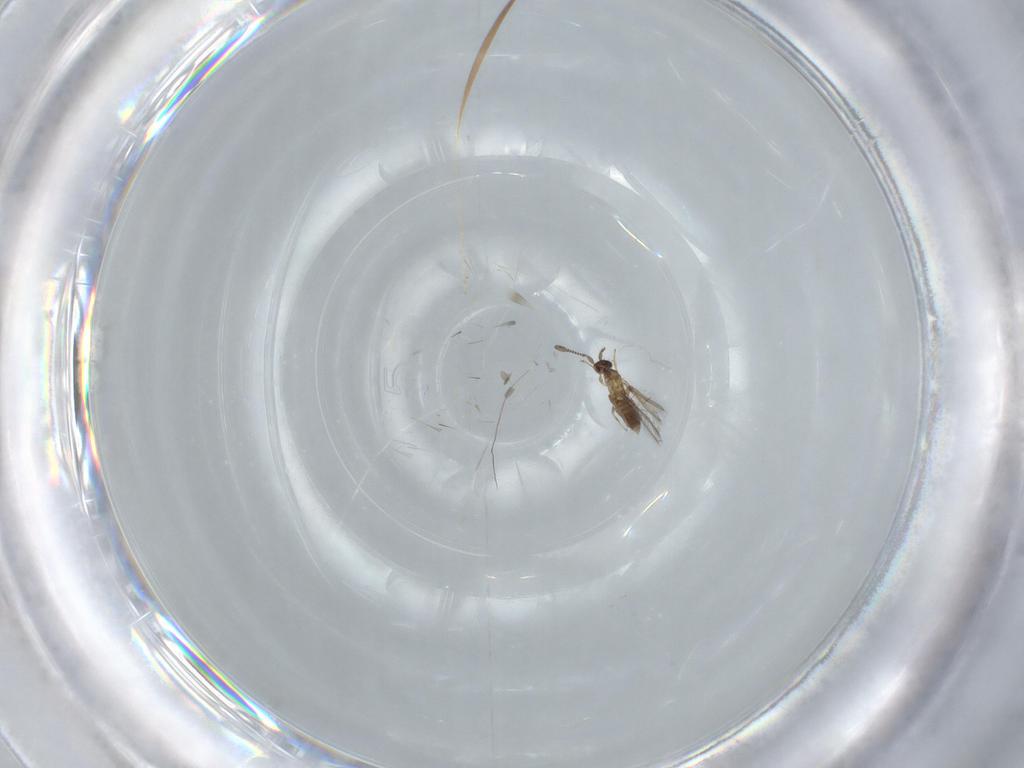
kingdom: Animalia
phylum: Arthropoda
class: Insecta
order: Hymenoptera
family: Mymaridae
